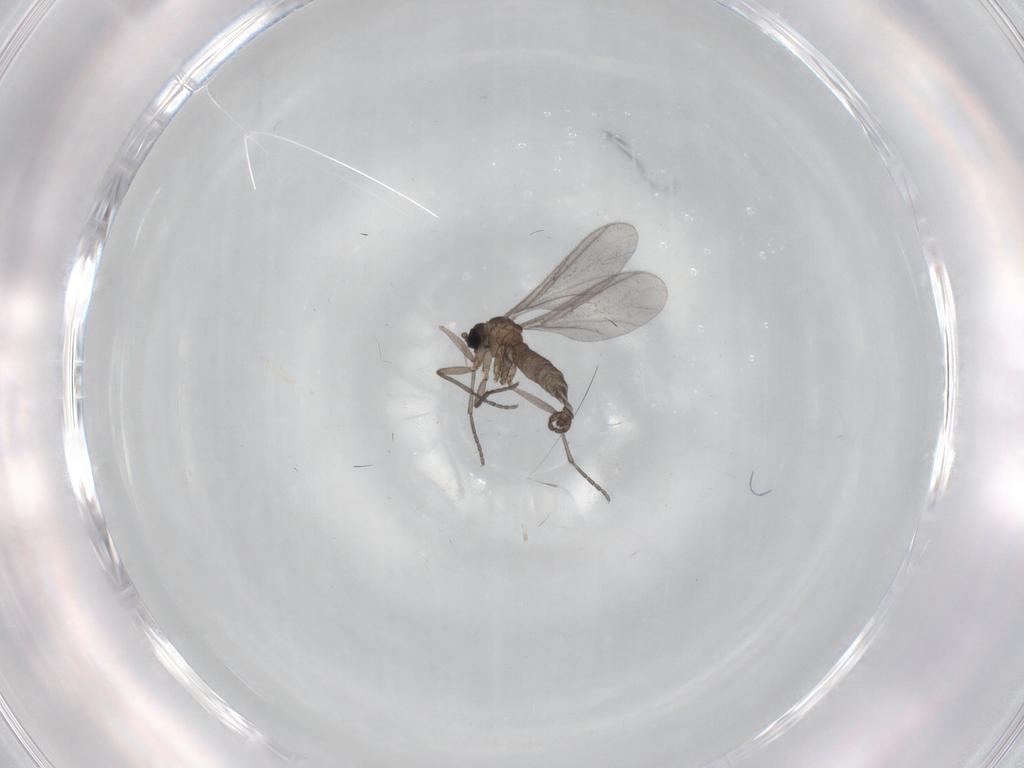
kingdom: Animalia
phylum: Arthropoda
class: Insecta
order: Diptera
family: Sciaridae
